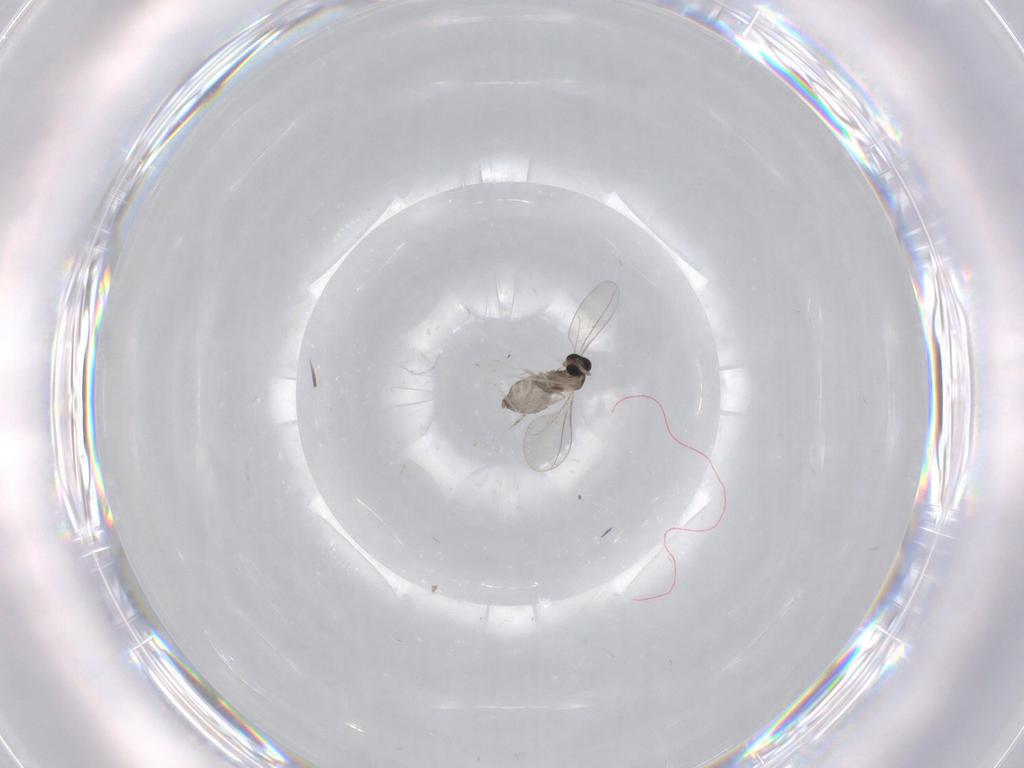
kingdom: Animalia
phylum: Arthropoda
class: Insecta
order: Diptera
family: Cecidomyiidae
